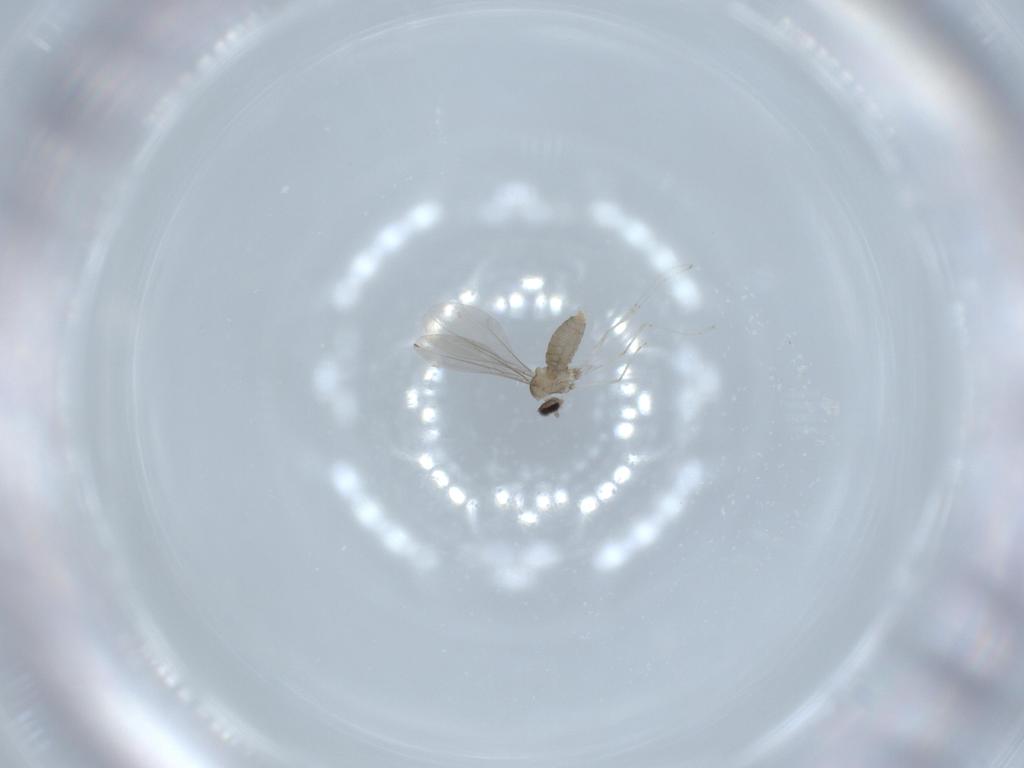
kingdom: Animalia
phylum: Arthropoda
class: Insecta
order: Diptera
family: Cecidomyiidae
